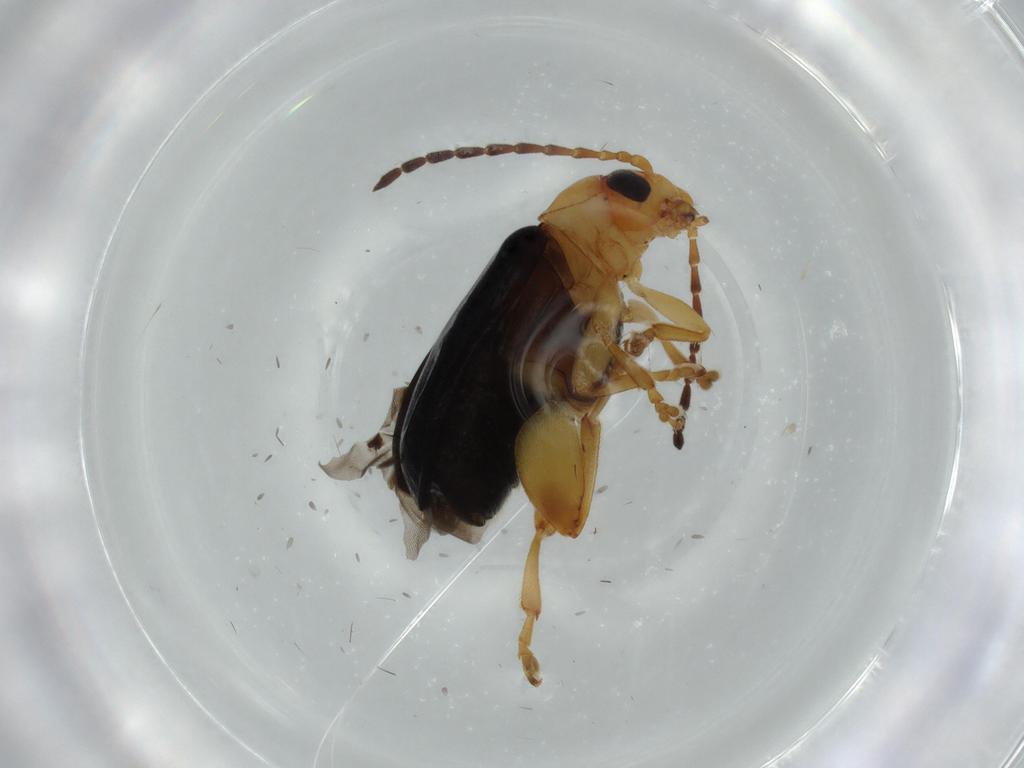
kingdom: Animalia
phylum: Arthropoda
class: Insecta
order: Coleoptera
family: Chrysomelidae
